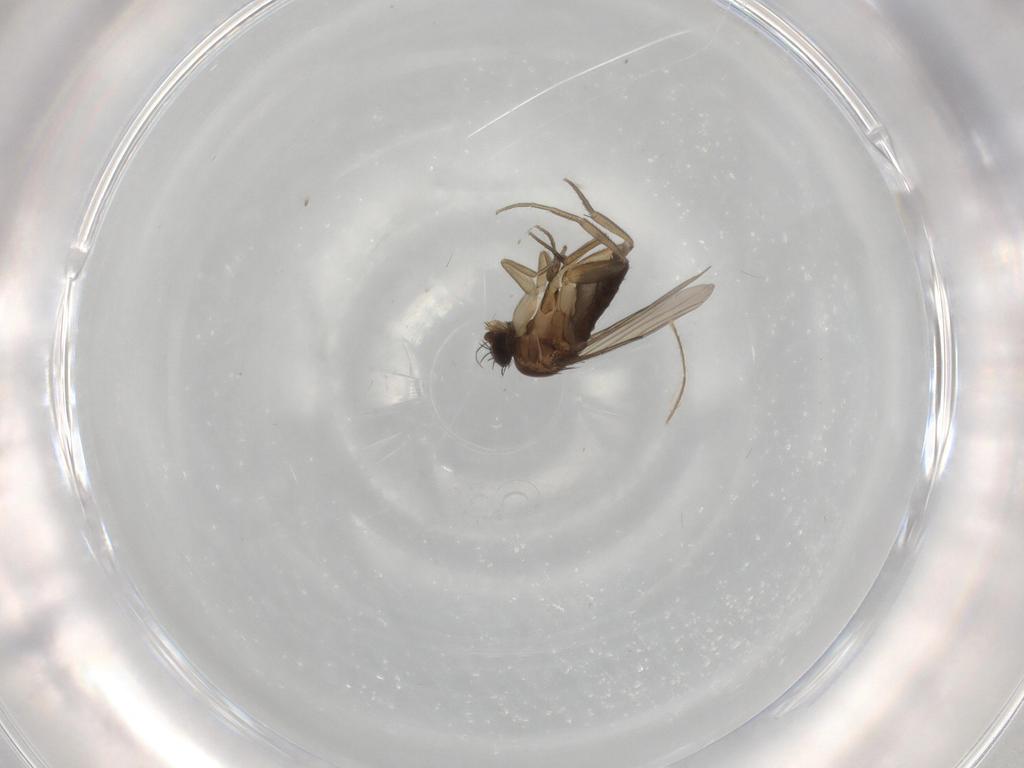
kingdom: Animalia
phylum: Arthropoda
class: Insecta
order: Diptera
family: Phoridae
